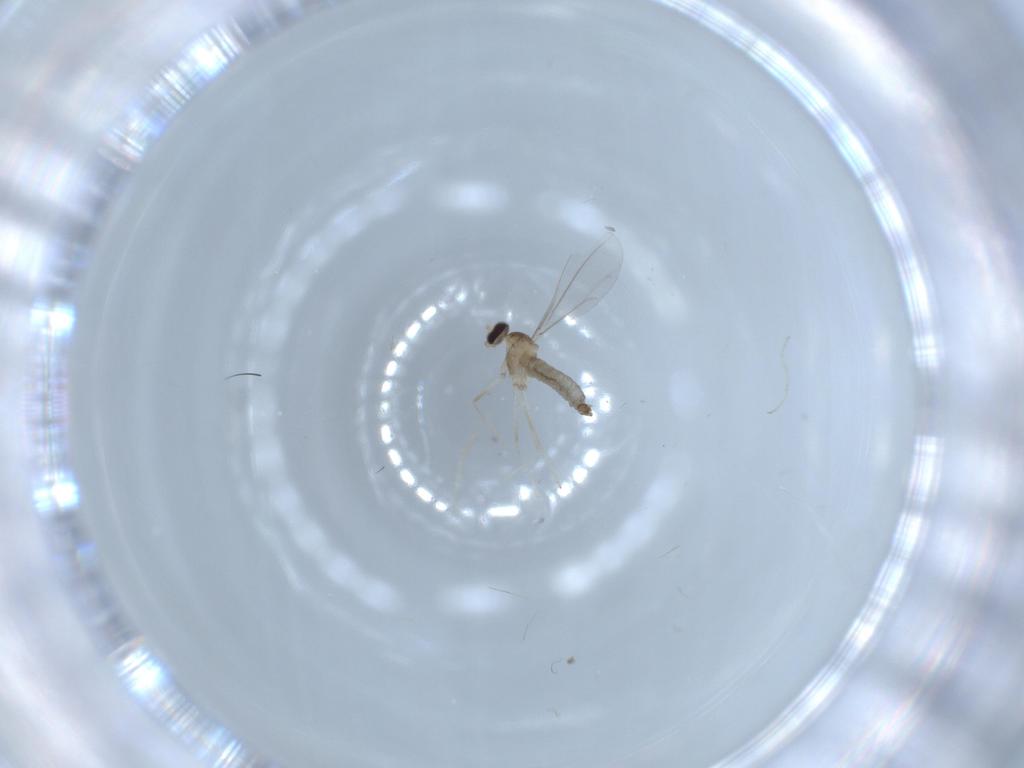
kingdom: Animalia
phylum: Arthropoda
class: Insecta
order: Diptera
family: Cecidomyiidae
